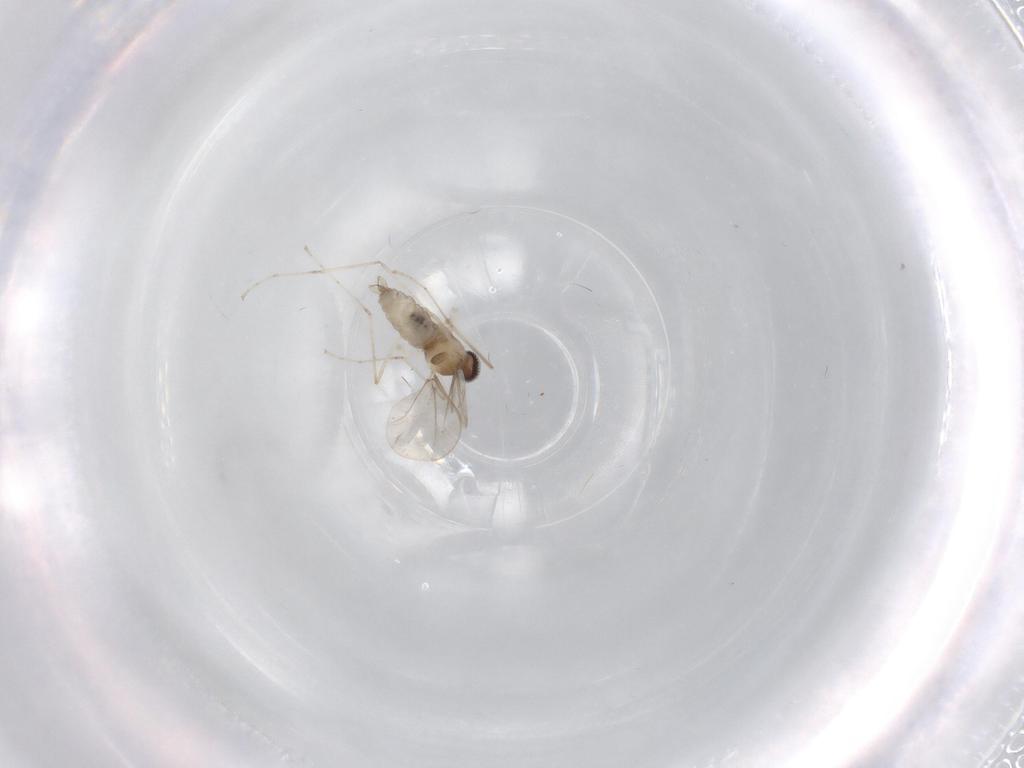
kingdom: Animalia
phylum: Arthropoda
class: Insecta
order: Diptera
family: Cecidomyiidae
